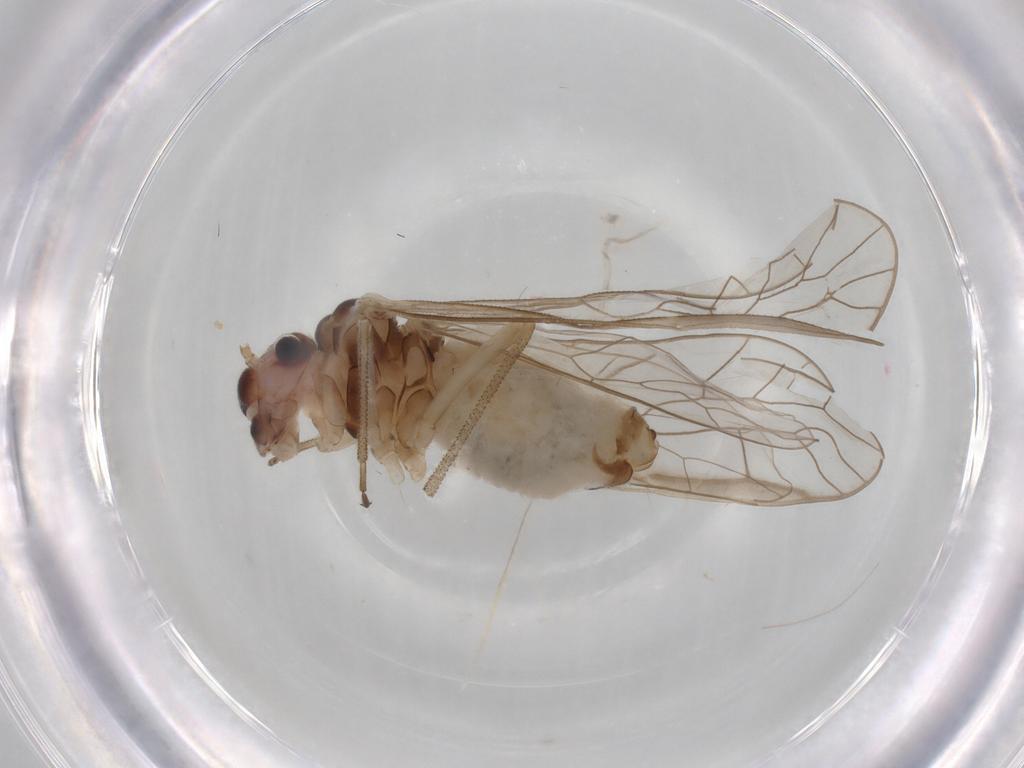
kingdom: Animalia
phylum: Arthropoda
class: Insecta
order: Psocodea
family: Stenopsocidae
